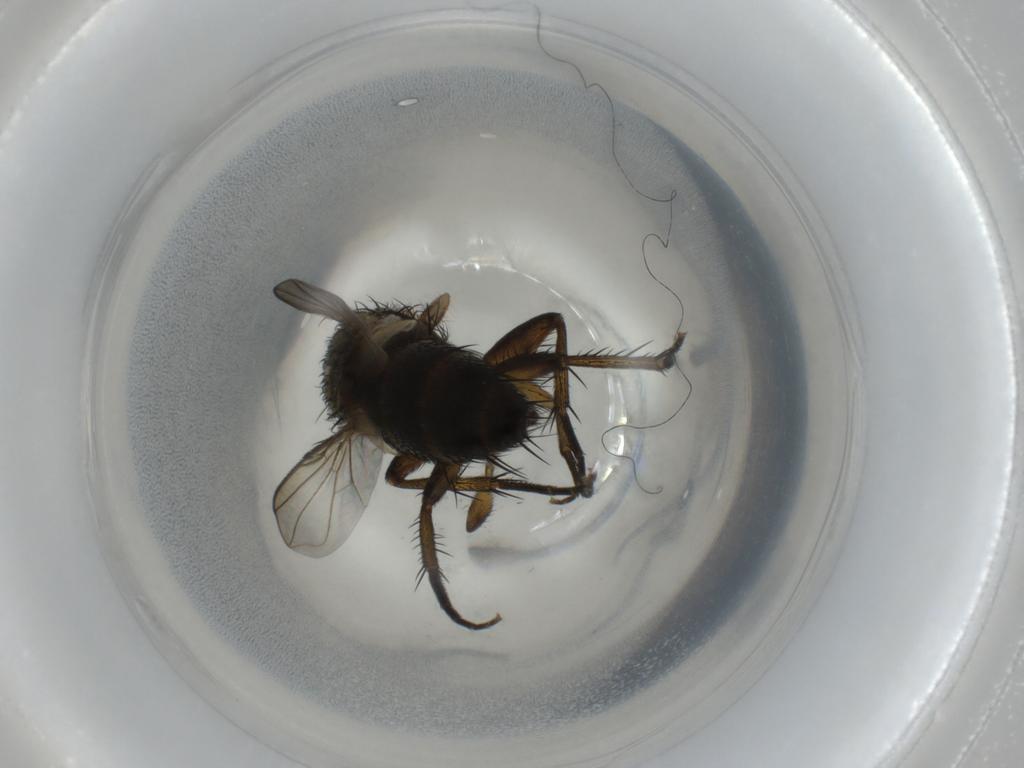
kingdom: Animalia
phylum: Arthropoda
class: Insecta
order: Diptera
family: Tachinidae
